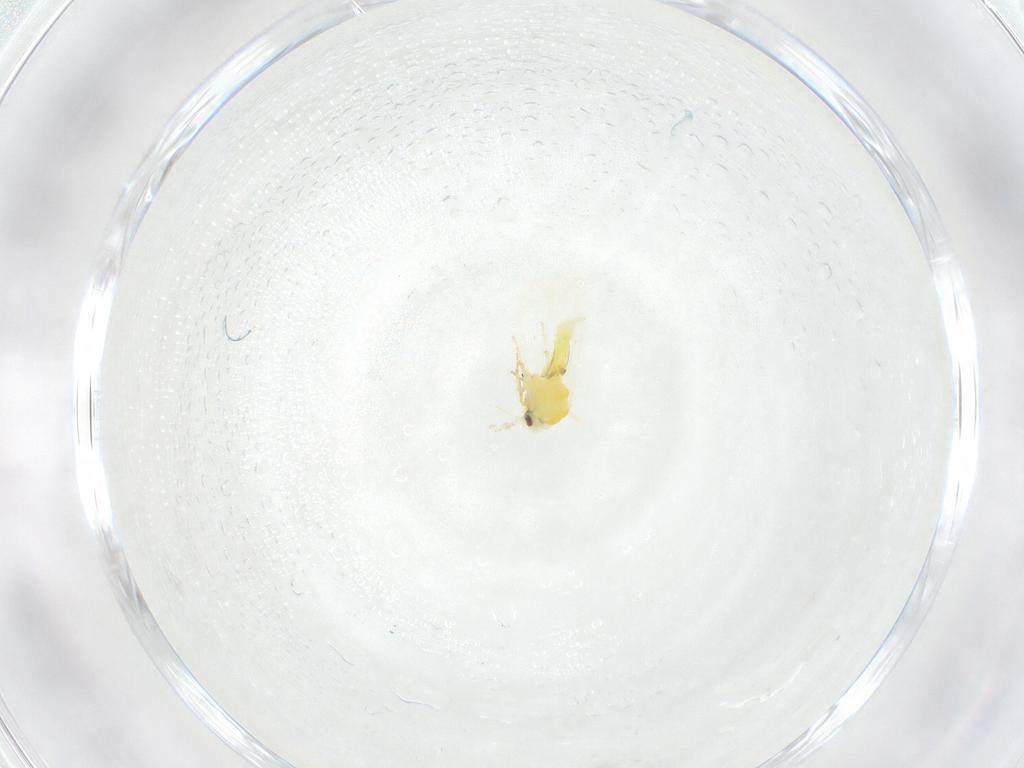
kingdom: Animalia
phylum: Arthropoda
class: Insecta
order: Hemiptera
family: Aleyrodidae
